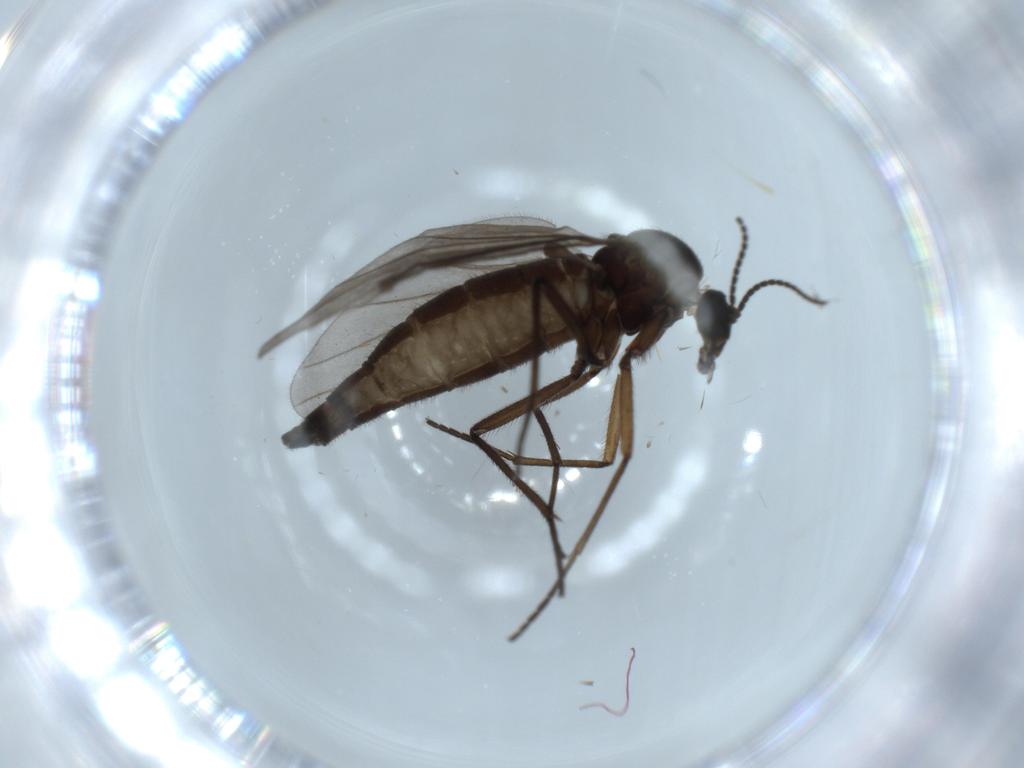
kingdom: Animalia
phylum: Arthropoda
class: Insecta
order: Diptera
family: Sciaridae
